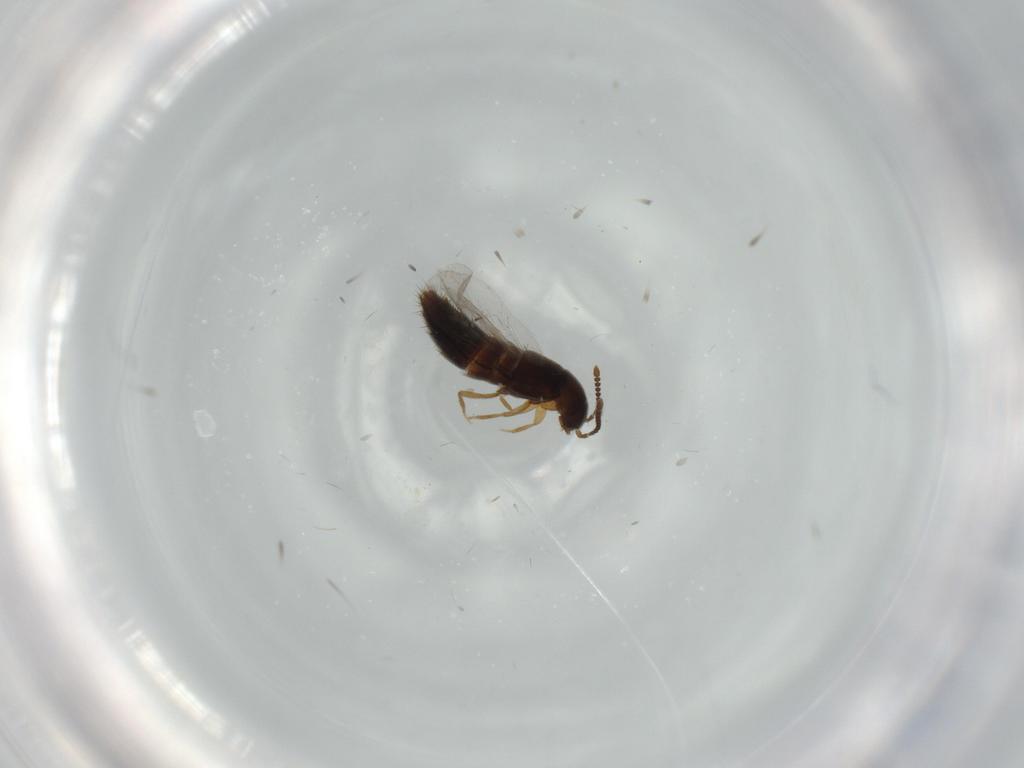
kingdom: Animalia
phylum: Arthropoda
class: Insecta
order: Coleoptera
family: Staphylinidae
